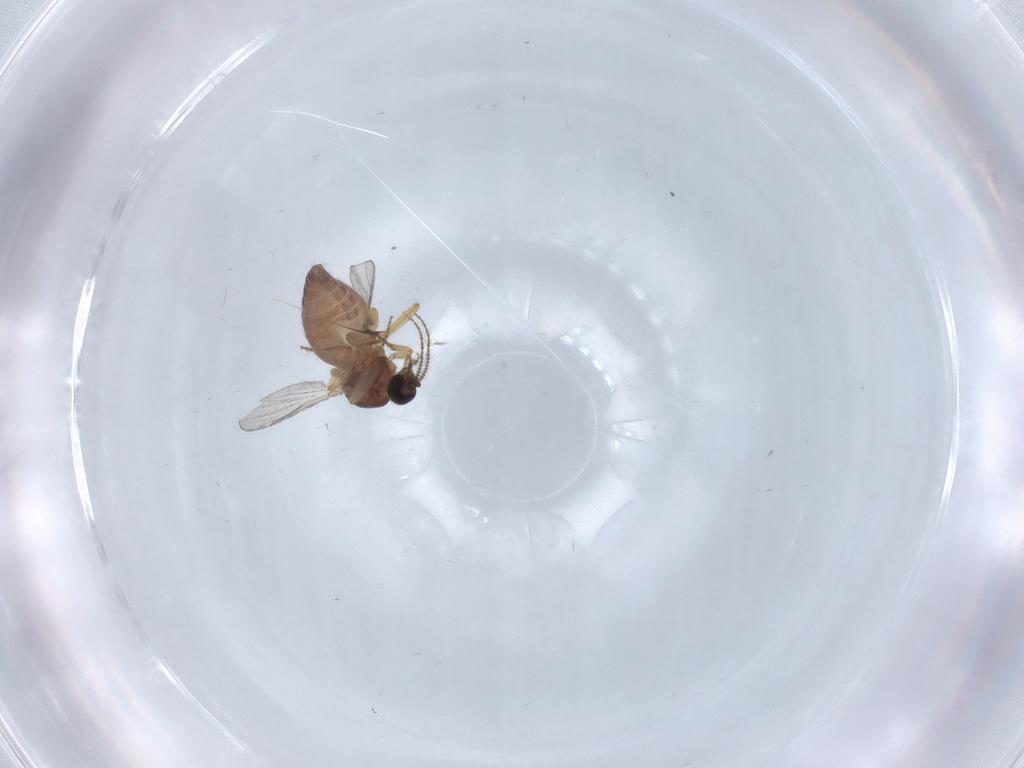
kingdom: Animalia
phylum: Arthropoda
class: Insecta
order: Diptera
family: Ceratopogonidae
